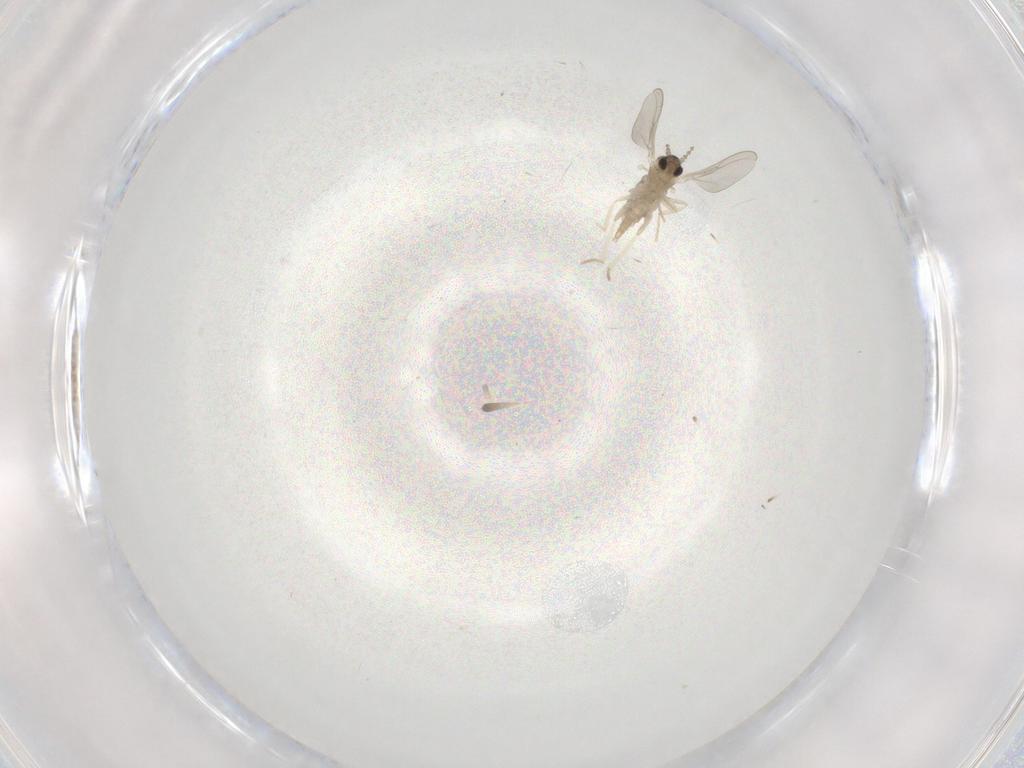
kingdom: Animalia
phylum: Arthropoda
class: Insecta
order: Diptera
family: Cecidomyiidae
